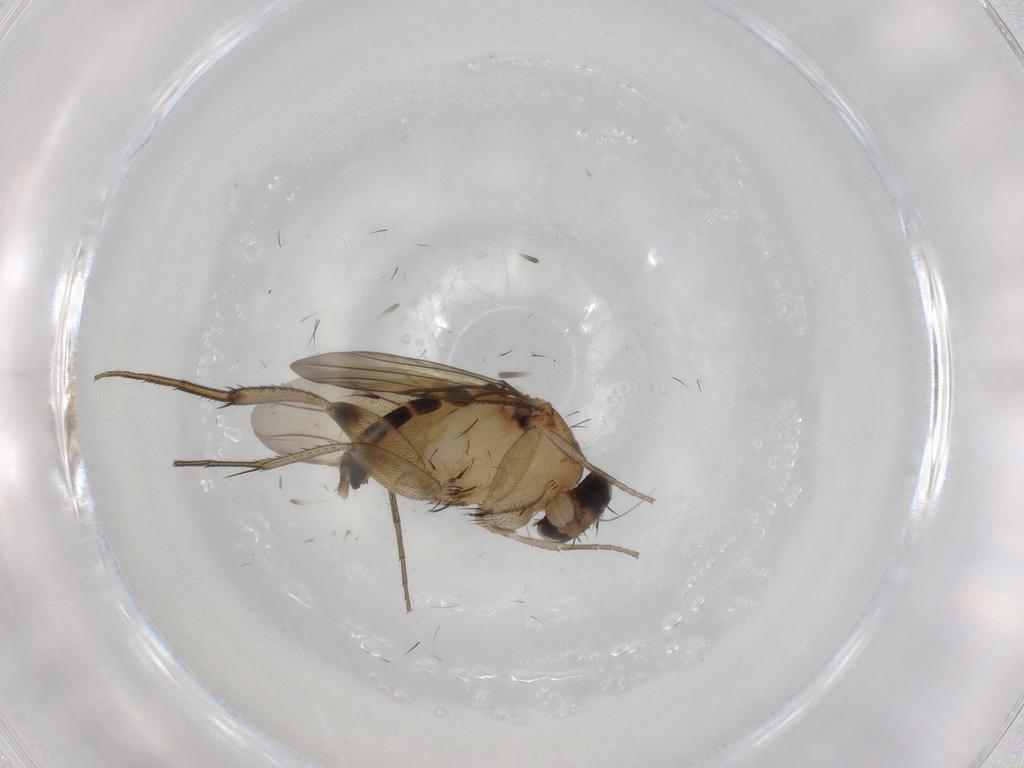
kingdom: Animalia
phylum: Arthropoda
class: Insecta
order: Diptera
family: Phoridae
